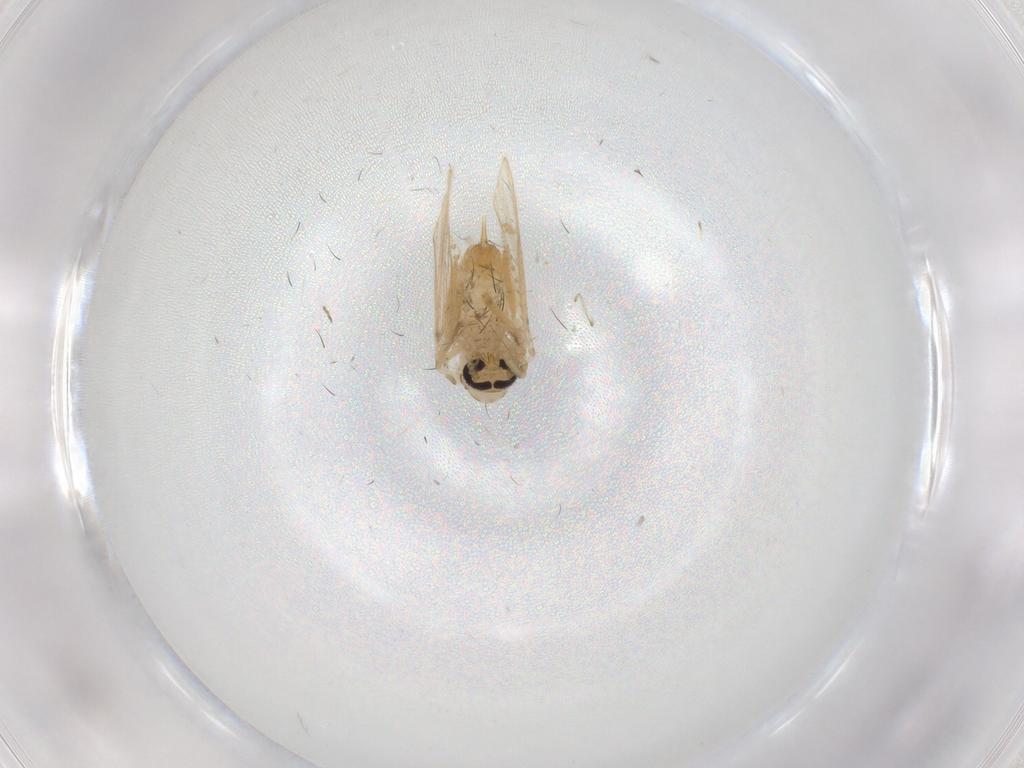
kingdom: Animalia
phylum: Arthropoda
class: Insecta
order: Diptera
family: Psychodidae
